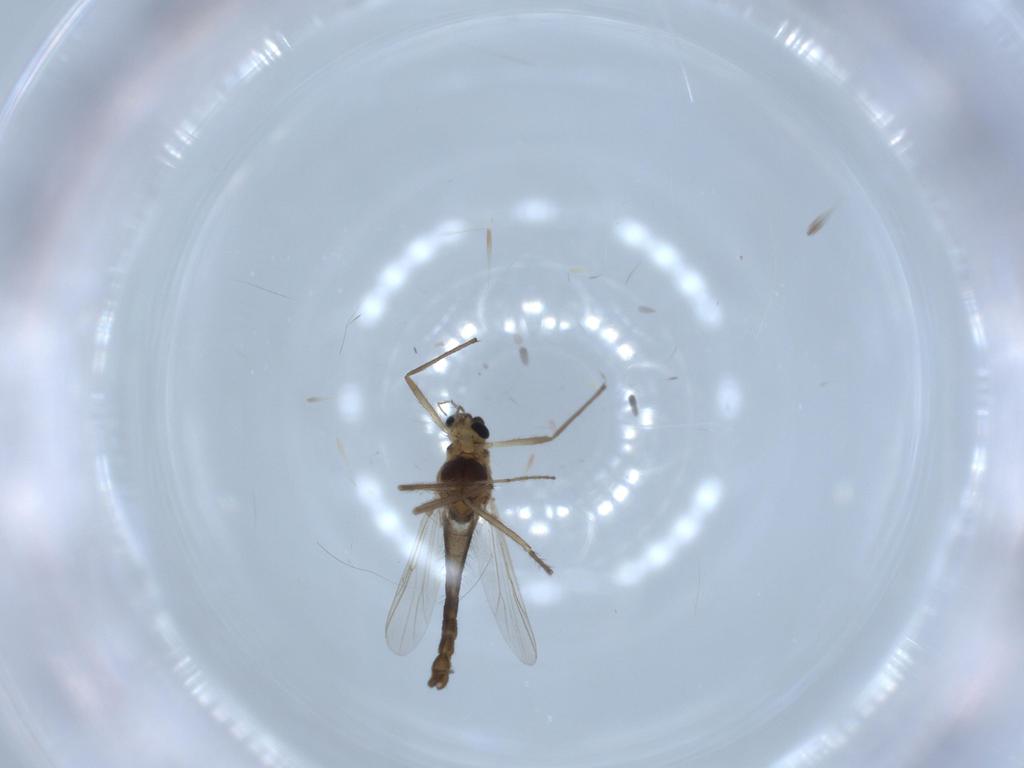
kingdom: Animalia
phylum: Arthropoda
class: Insecta
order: Diptera
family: Chironomidae
